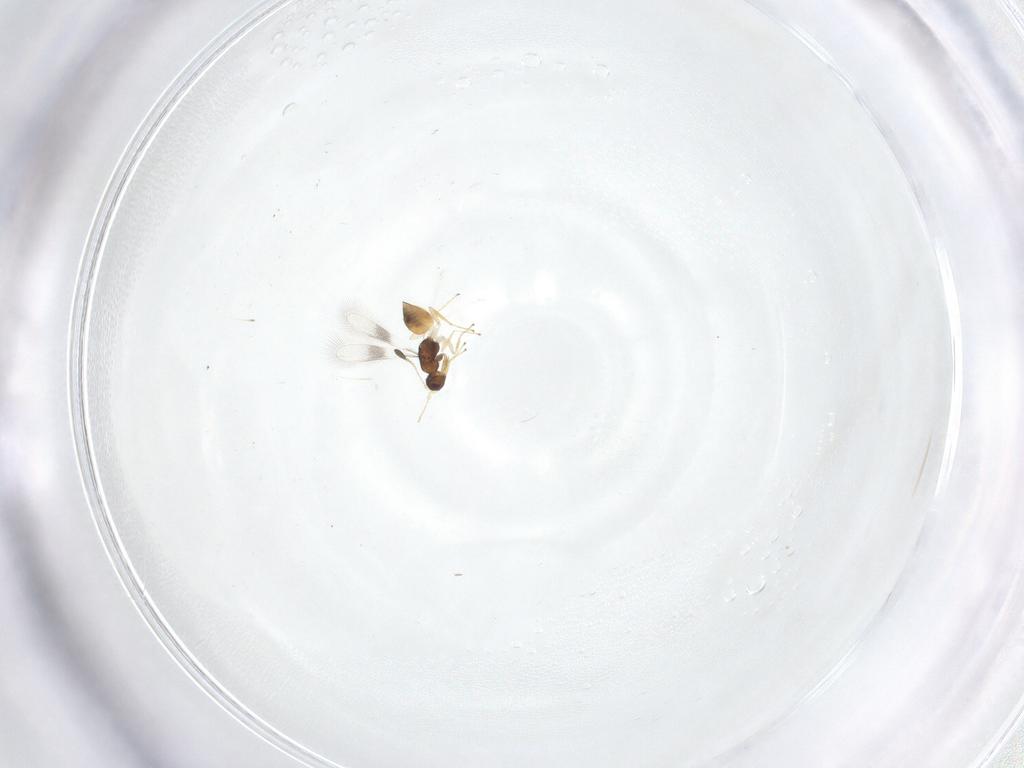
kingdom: Animalia
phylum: Arthropoda
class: Insecta
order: Hymenoptera
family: Mymaridae
